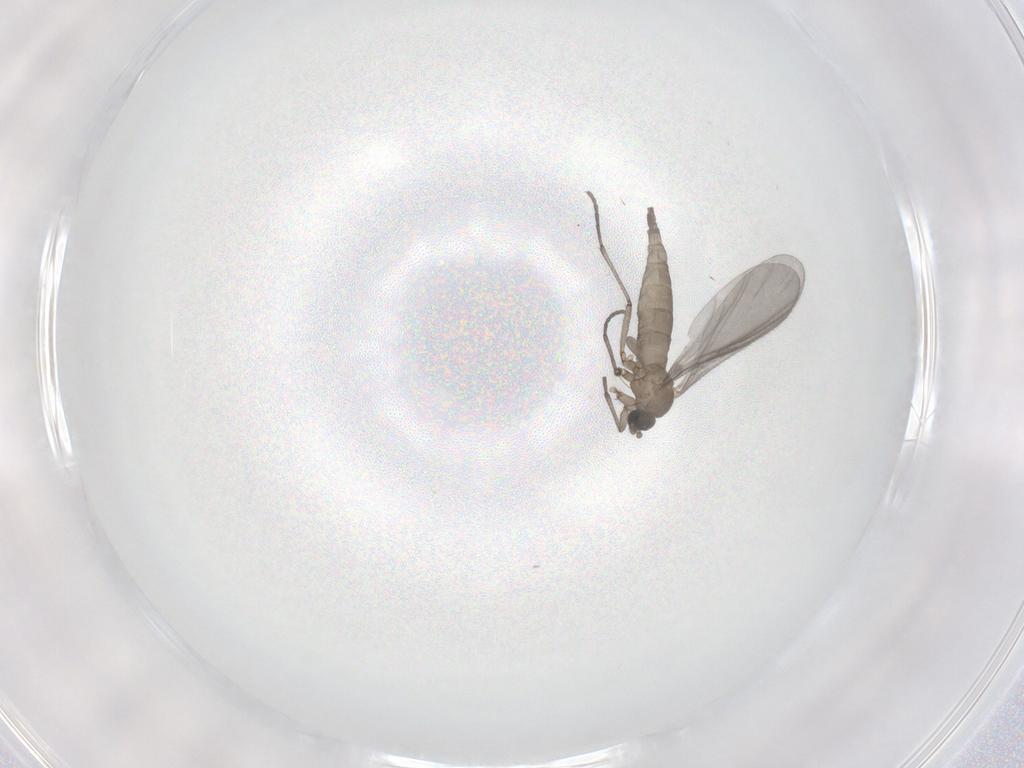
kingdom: Animalia
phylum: Arthropoda
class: Insecta
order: Diptera
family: Sciaridae
